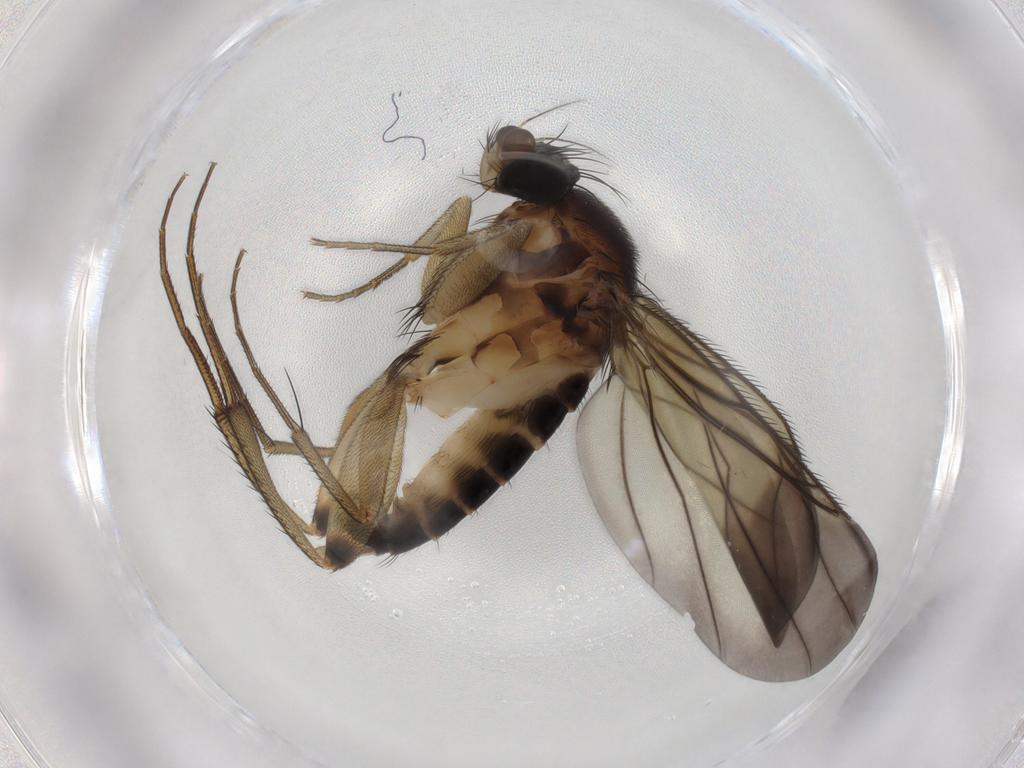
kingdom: Animalia
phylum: Arthropoda
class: Insecta
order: Diptera
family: Phoridae
